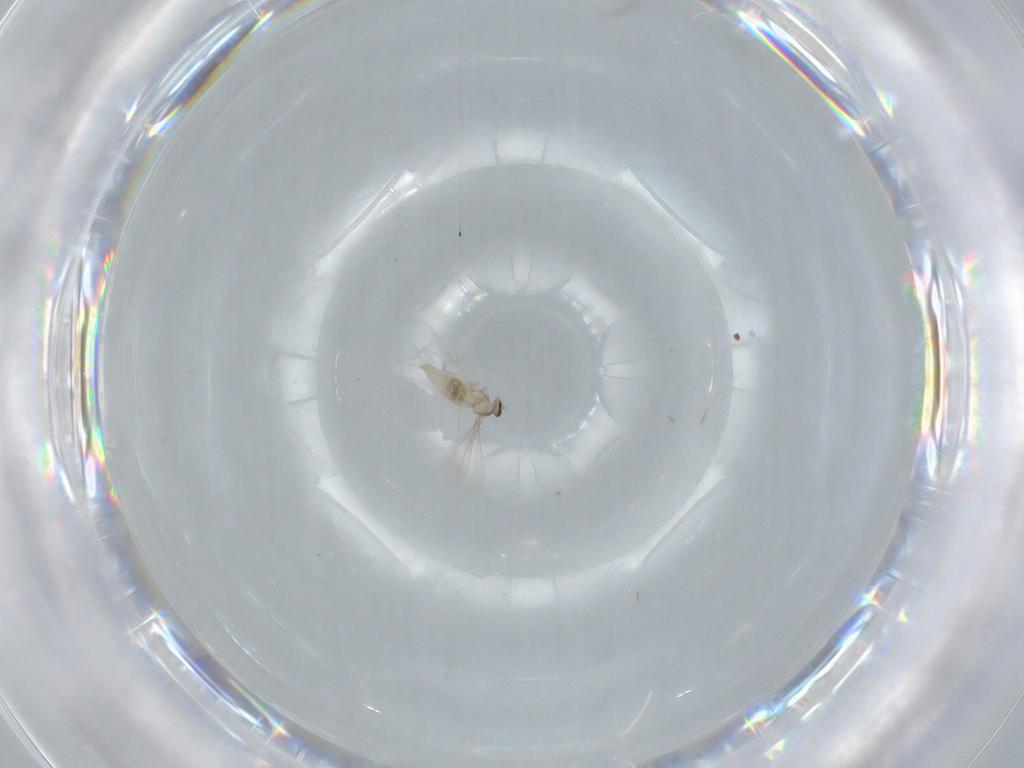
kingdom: Animalia
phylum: Arthropoda
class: Insecta
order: Diptera
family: Cecidomyiidae
